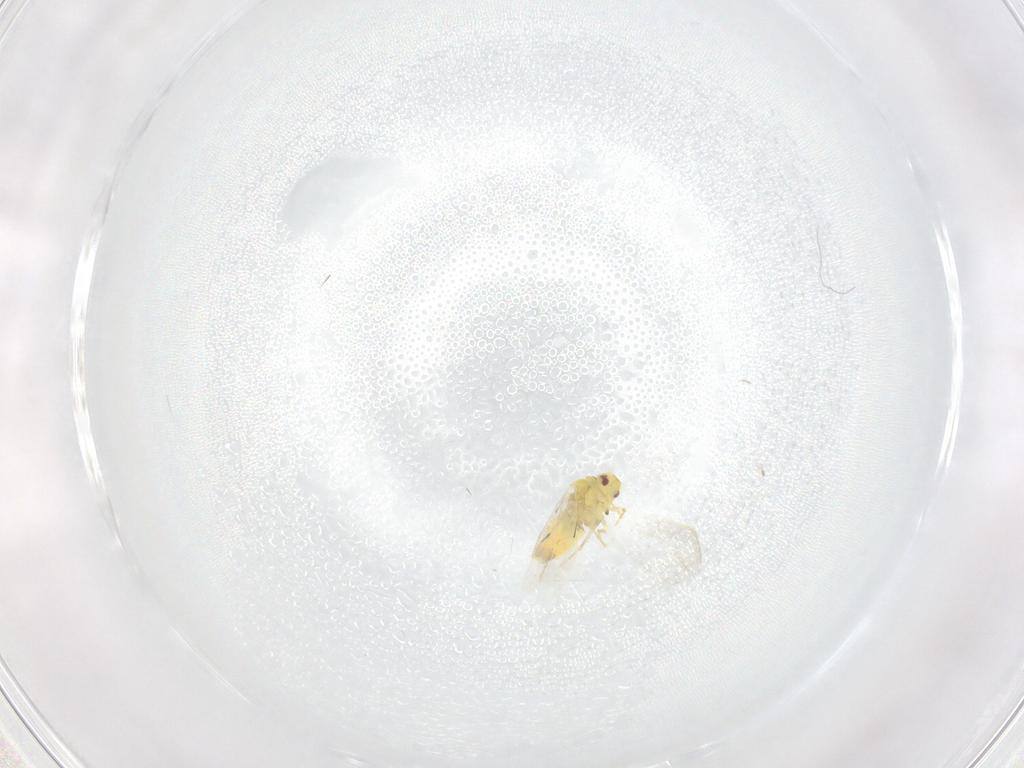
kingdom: Animalia
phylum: Arthropoda
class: Insecta
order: Hemiptera
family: Aleyrodidae
